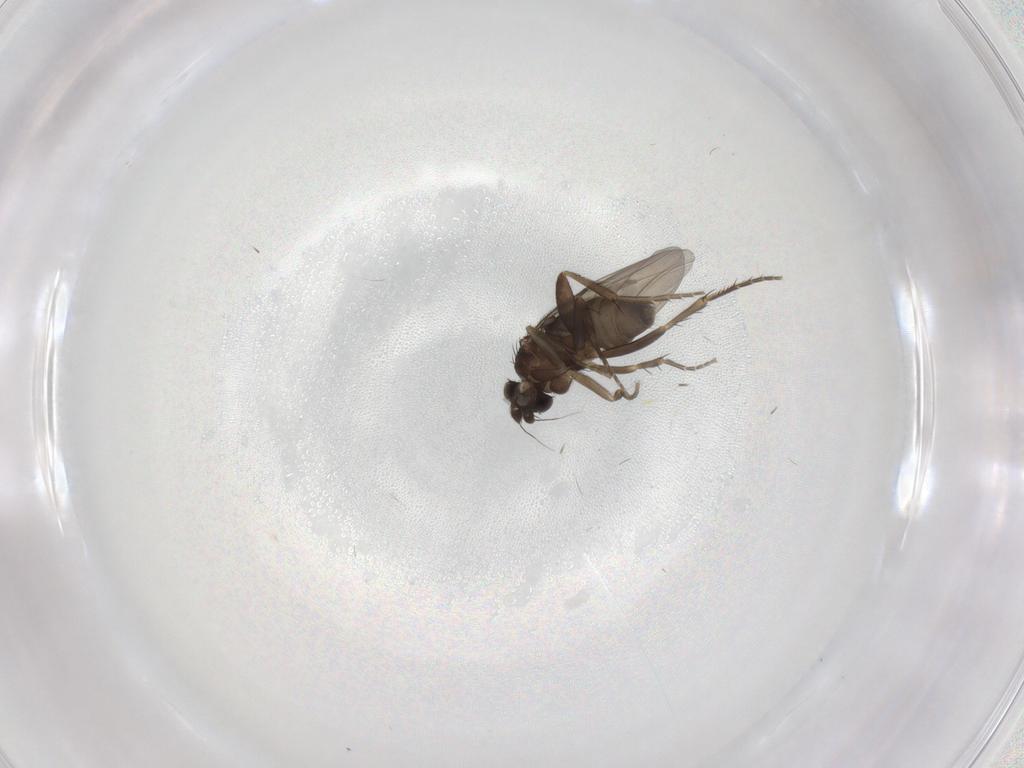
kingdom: Animalia
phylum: Arthropoda
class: Insecta
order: Diptera
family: Phoridae
